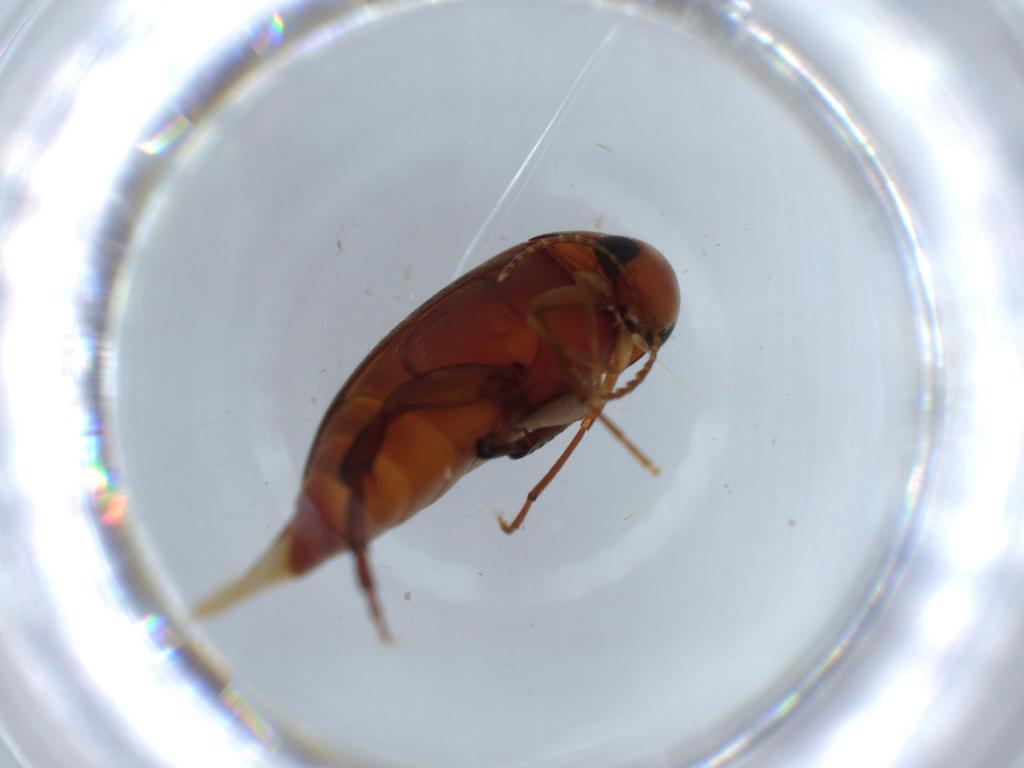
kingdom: Animalia
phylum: Arthropoda
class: Insecta
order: Coleoptera
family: Mordellidae
